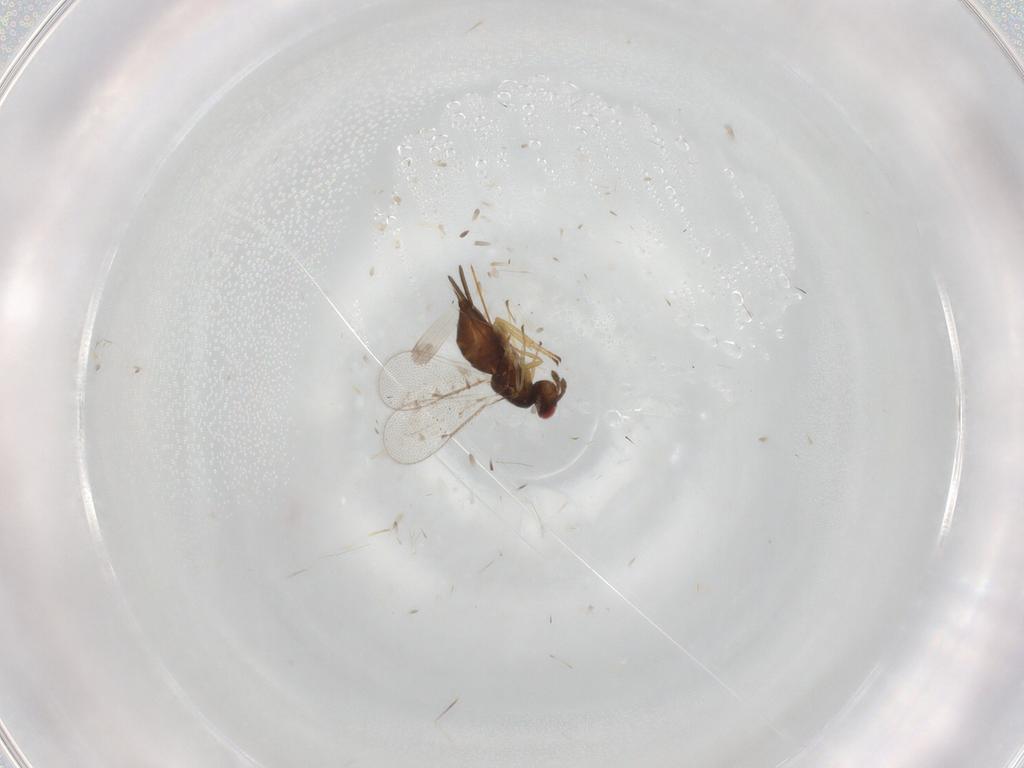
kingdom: Animalia
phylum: Arthropoda
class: Insecta
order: Hymenoptera
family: Eulophidae
